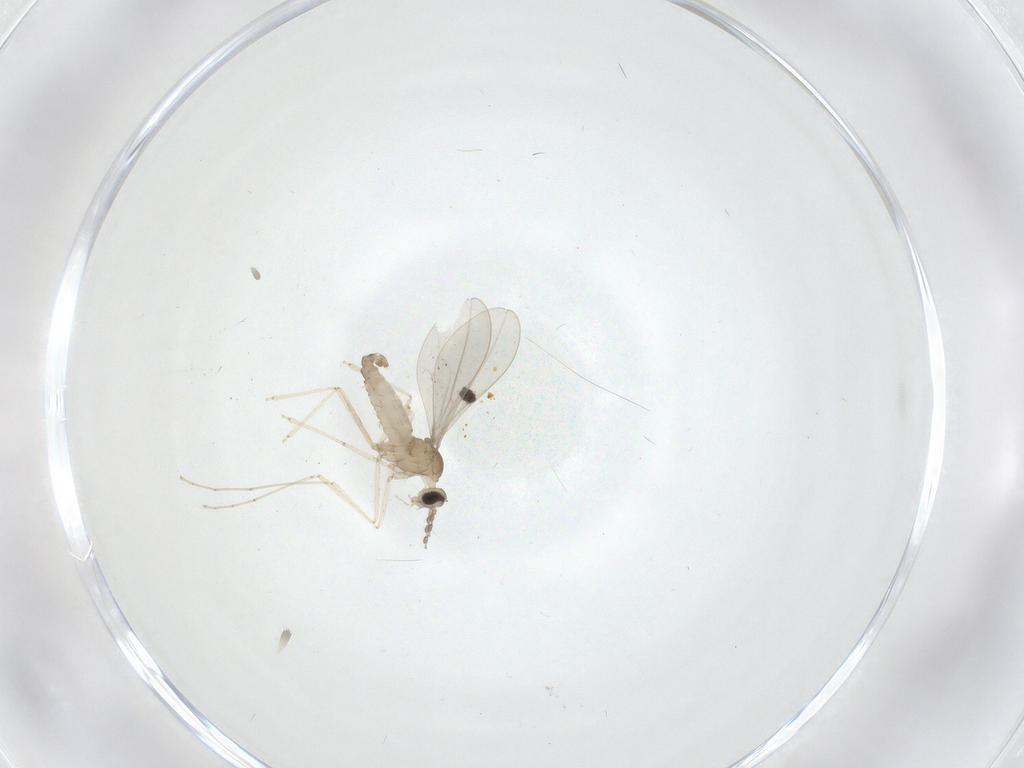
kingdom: Animalia
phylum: Arthropoda
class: Insecta
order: Diptera
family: Cecidomyiidae
